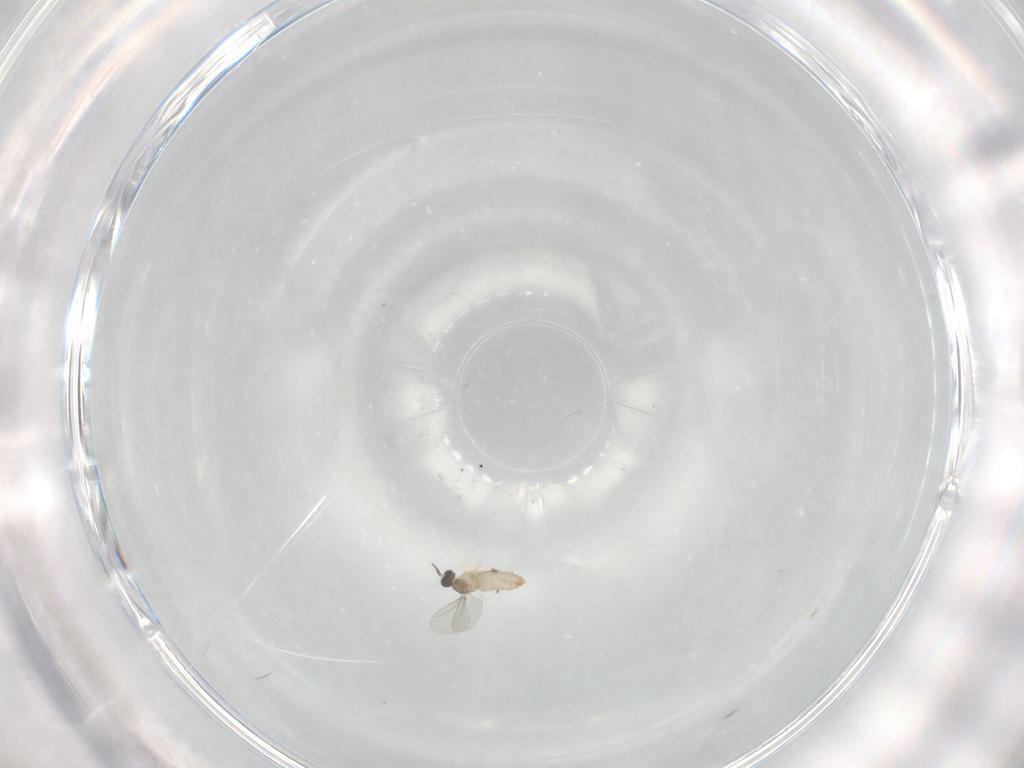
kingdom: Animalia
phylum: Arthropoda
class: Insecta
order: Diptera
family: Cecidomyiidae
